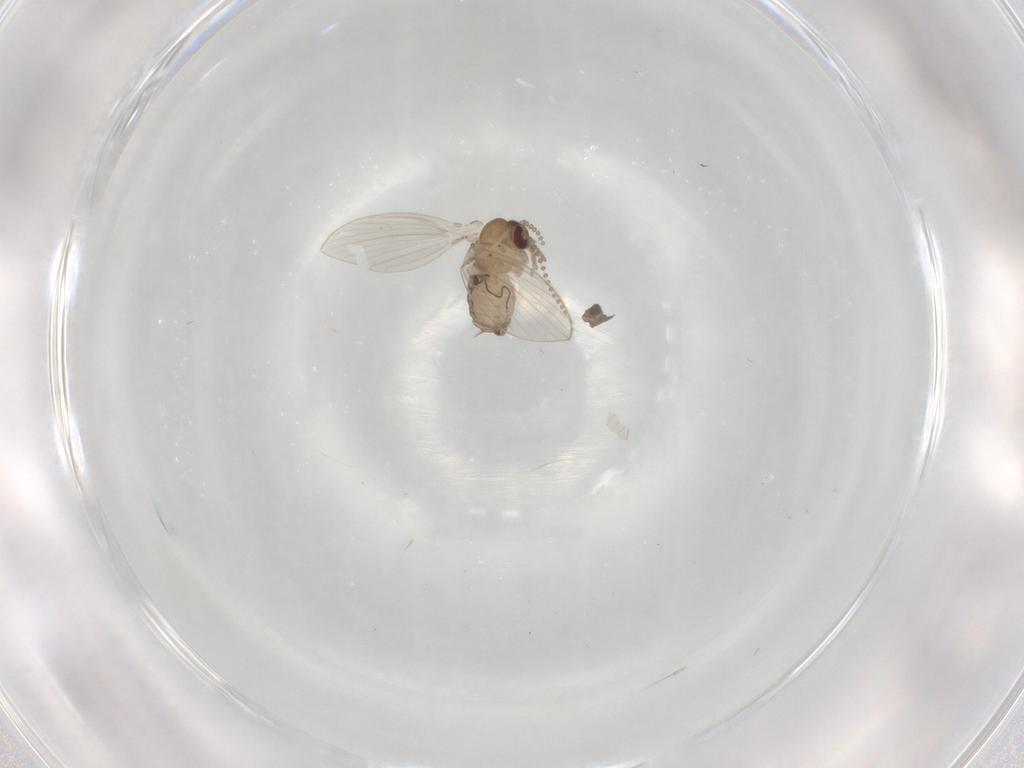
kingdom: Animalia
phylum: Arthropoda
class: Insecta
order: Diptera
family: Psychodidae
